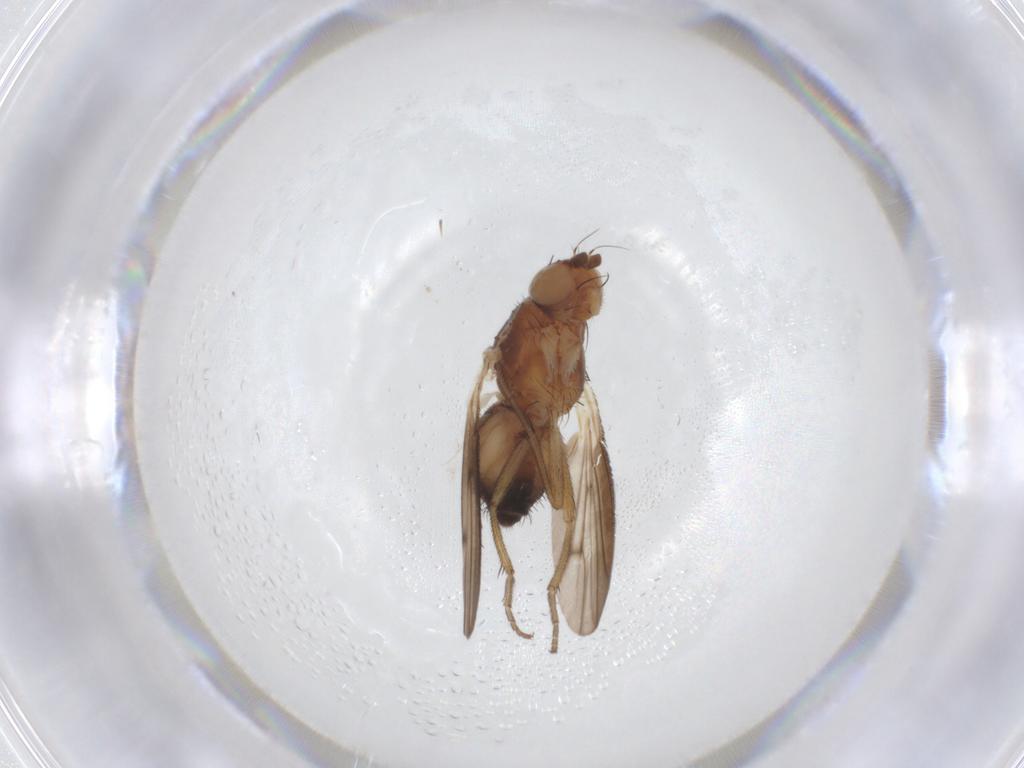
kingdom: Animalia
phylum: Arthropoda
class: Insecta
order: Diptera
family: Heleomyzidae
